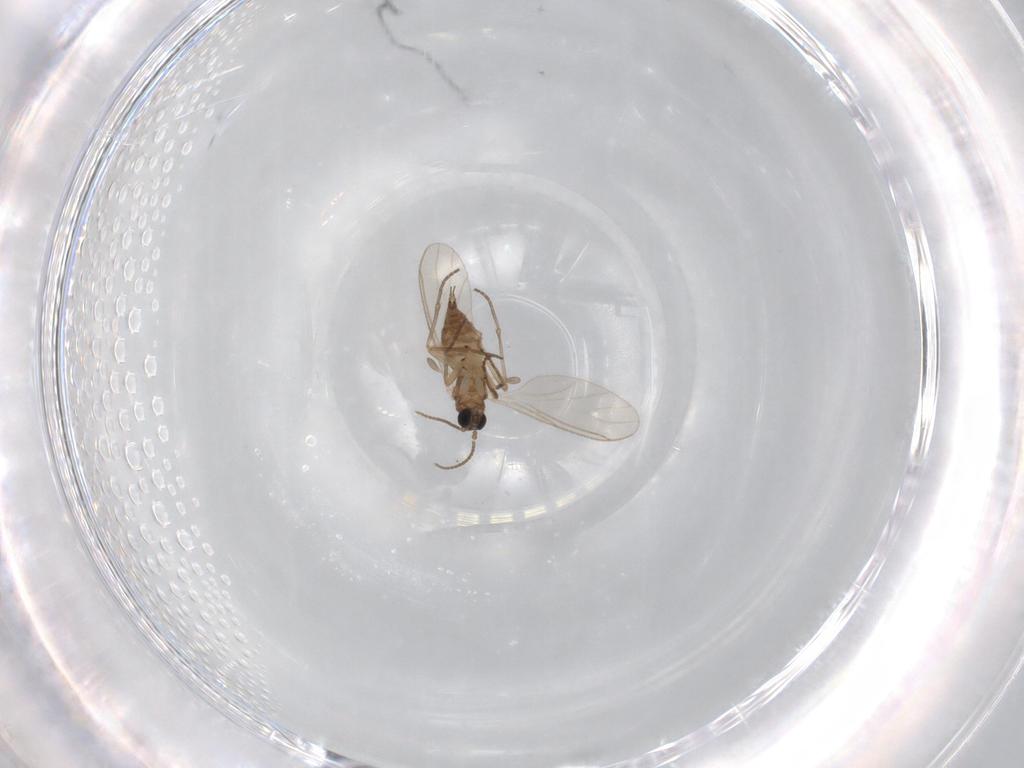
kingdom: Animalia
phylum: Arthropoda
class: Insecta
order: Diptera
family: Sciaridae
